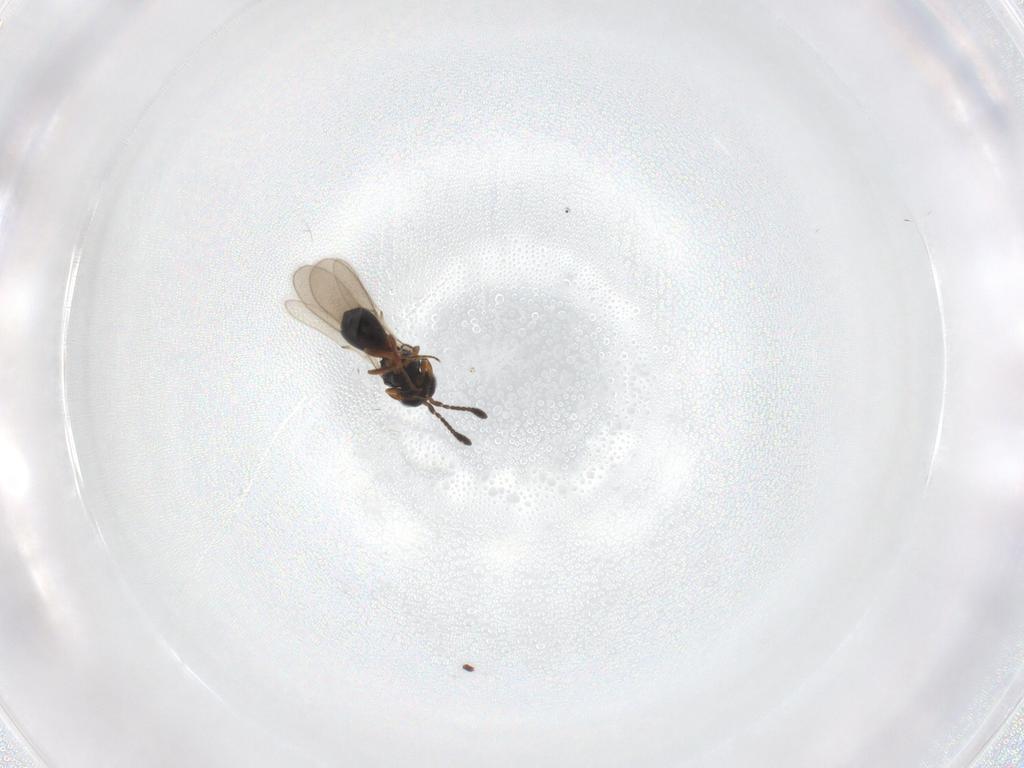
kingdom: Animalia
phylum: Arthropoda
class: Insecta
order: Hymenoptera
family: Scelionidae
